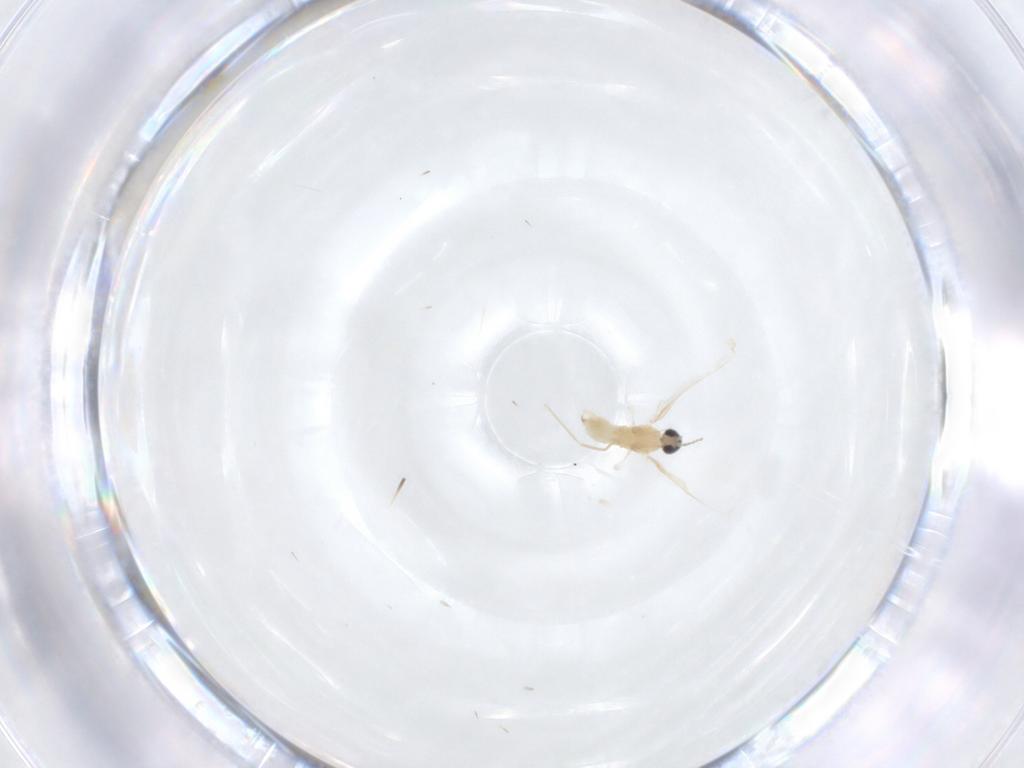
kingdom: Animalia
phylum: Arthropoda
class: Insecta
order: Diptera
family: Cecidomyiidae
